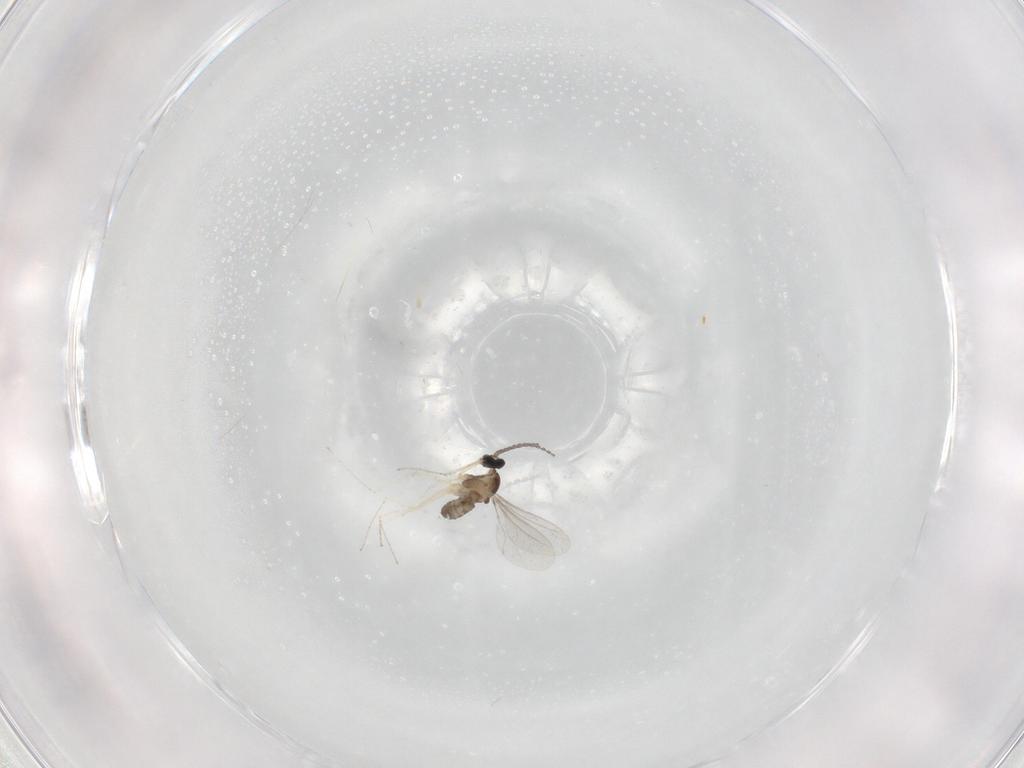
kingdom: Animalia
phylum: Arthropoda
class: Insecta
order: Diptera
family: Cecidomyiidae
